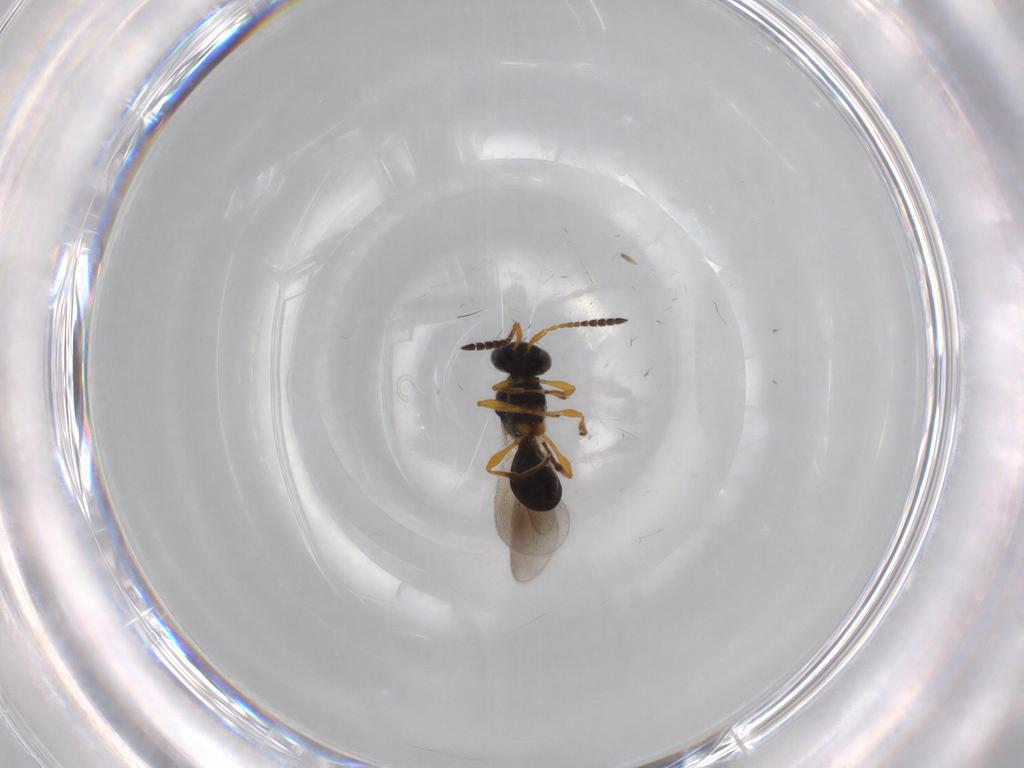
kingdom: Animalia
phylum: Arthropoda
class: Insecta
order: Hymenoptera
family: Platygastridae
